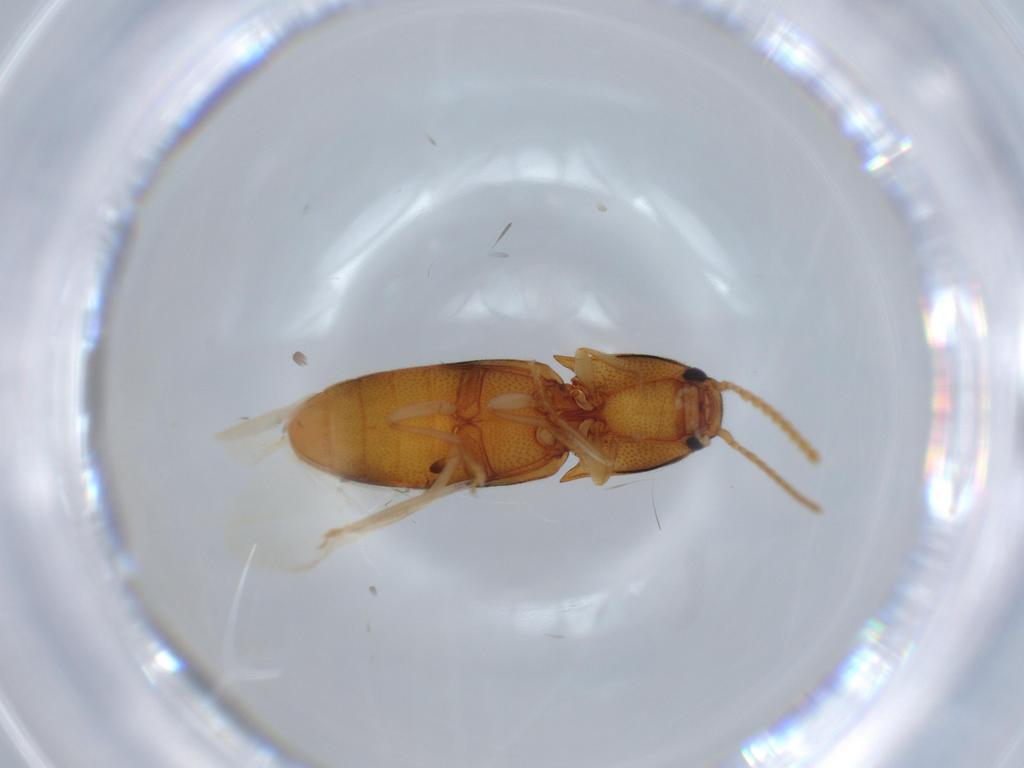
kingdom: Animalia
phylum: Arthropoda
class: Insecta
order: Coleoptera
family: Elateridae
